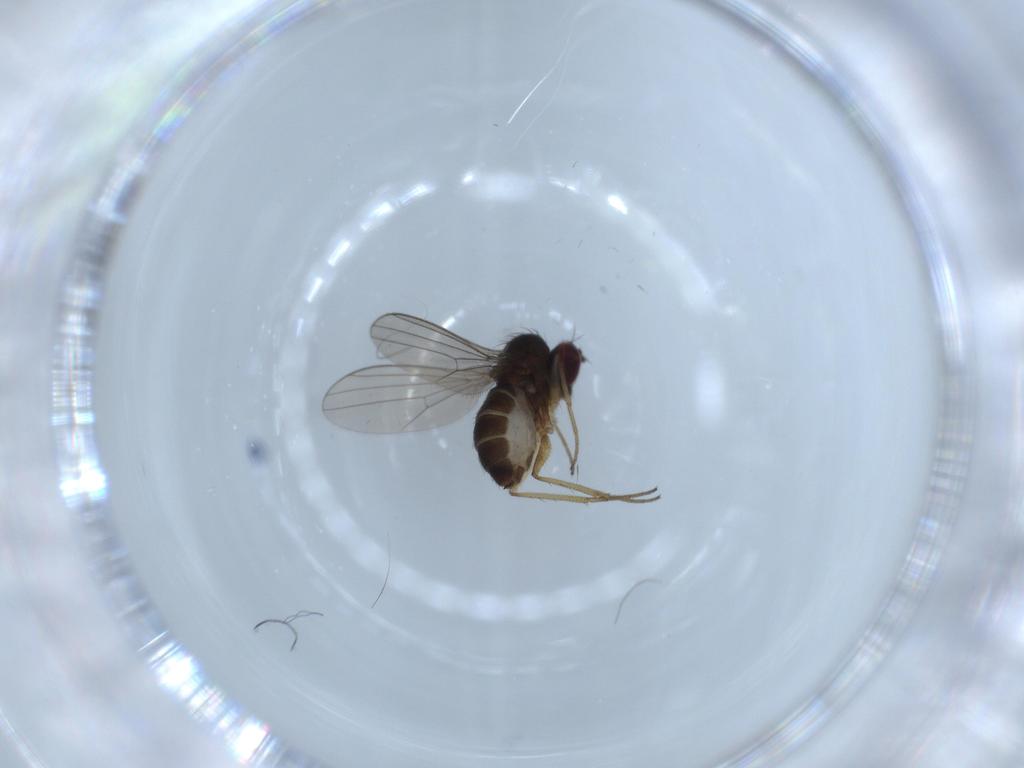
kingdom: Animalia
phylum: Arthropoda
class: Insecta
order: Diptera
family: Dolichopodidae
